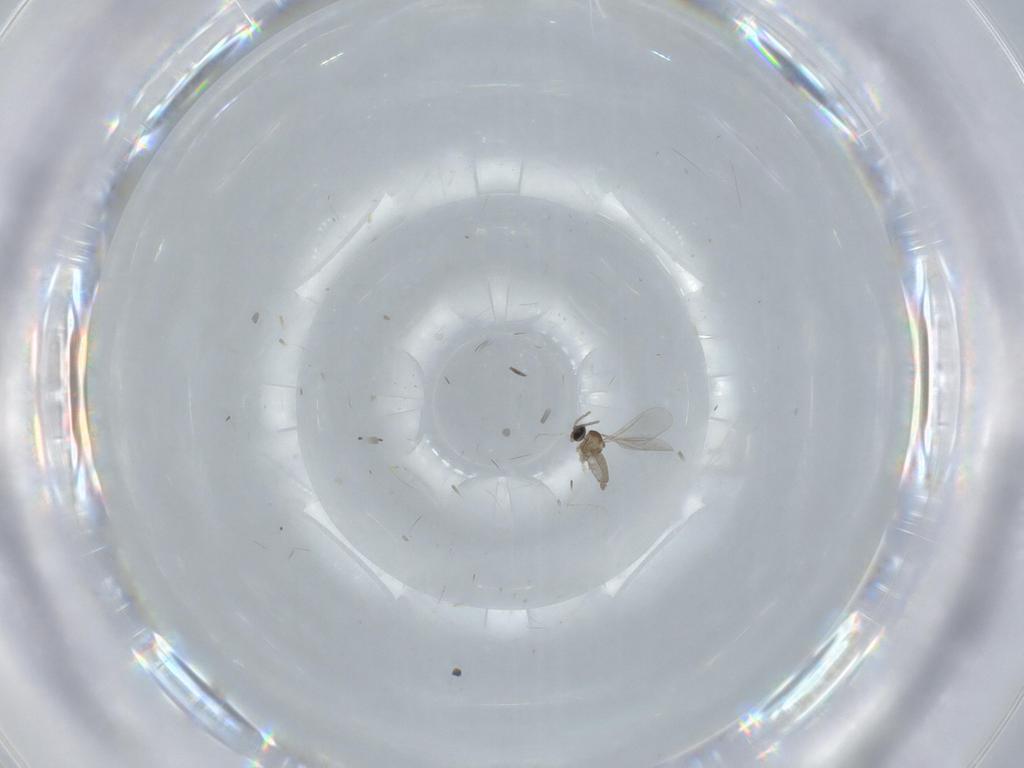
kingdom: Animalia
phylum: Arthropoda
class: Insecta
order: Diptera
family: Cecidomyiidae
